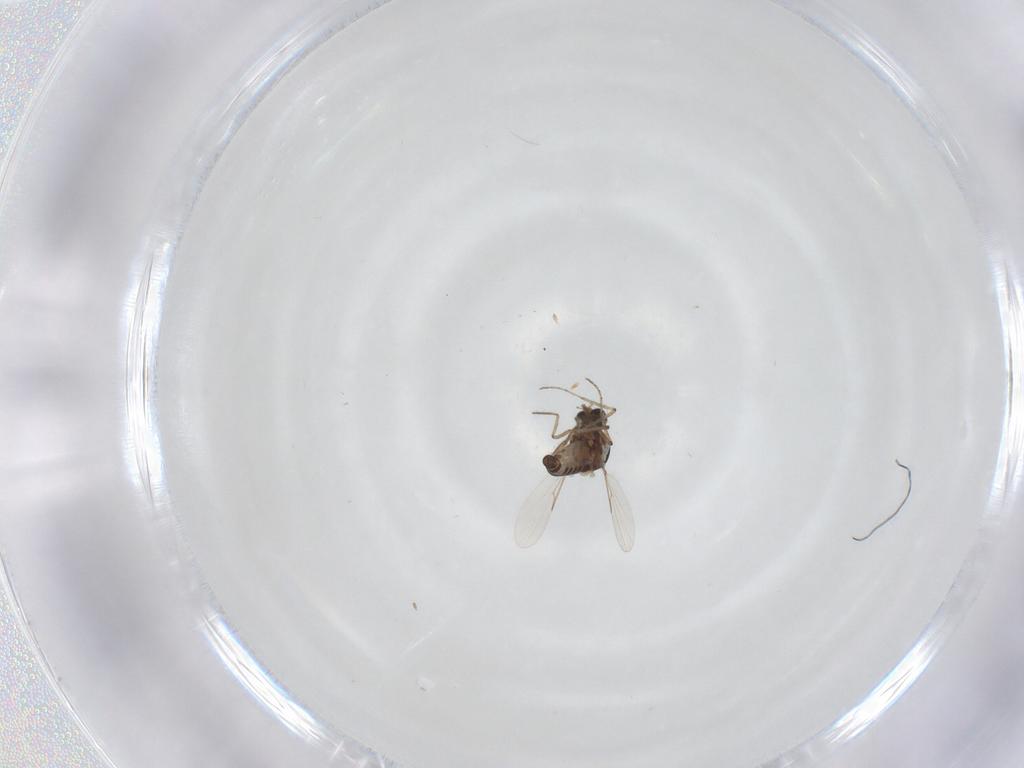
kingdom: Animalia
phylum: Arthropoda
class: Insecta
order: Diptera
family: Ceratopogonidae
